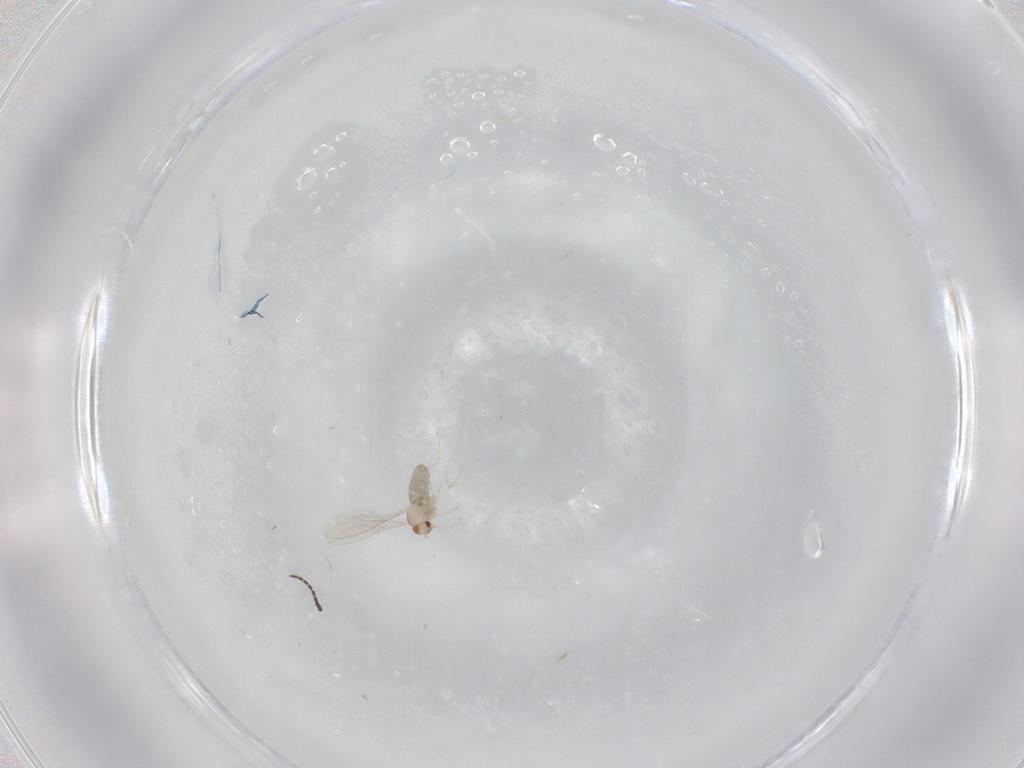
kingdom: Animalia
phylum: Arthropoda
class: Insecta
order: Diptera
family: Cecidomyiidae
